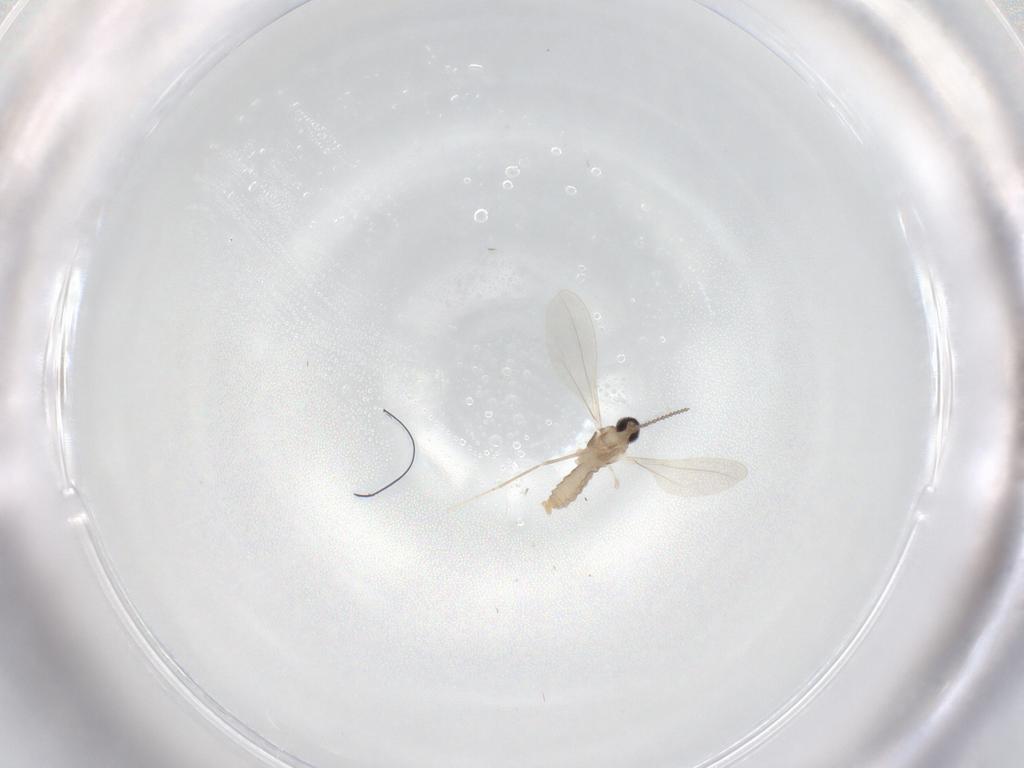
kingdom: Animalia
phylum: Arthropoda
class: Insecta
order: Diptera
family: Cecidomyiidae
